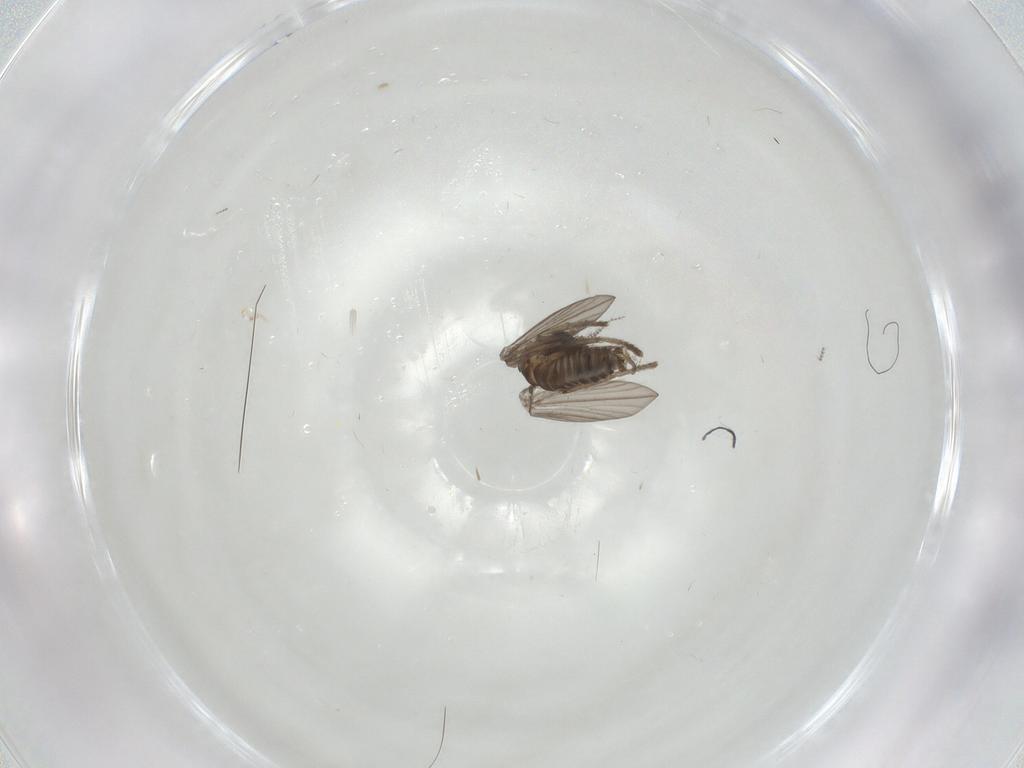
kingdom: Animalia
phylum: Arthropoda
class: Insecta
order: Diptera
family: Psychodidae
